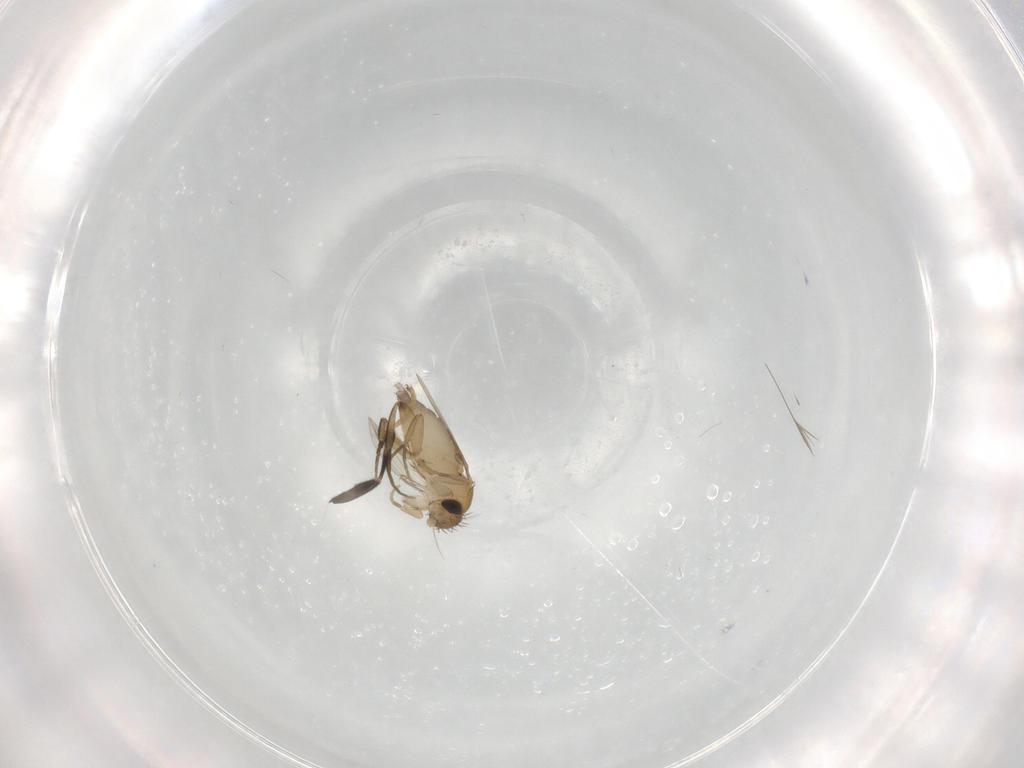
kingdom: Animalia
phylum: Arthropoda
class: Insecta
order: Diptera
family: Phoridae
